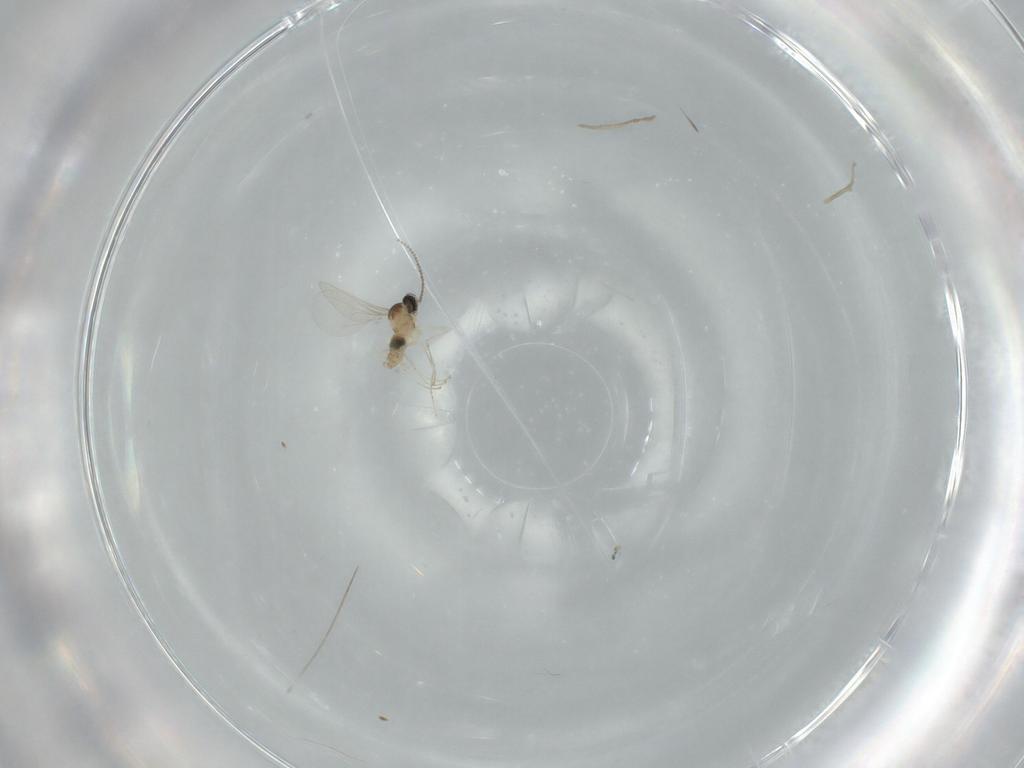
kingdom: Animalia
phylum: Arthropoda
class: Insecta
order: Diptera
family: Cecidomyiidae
